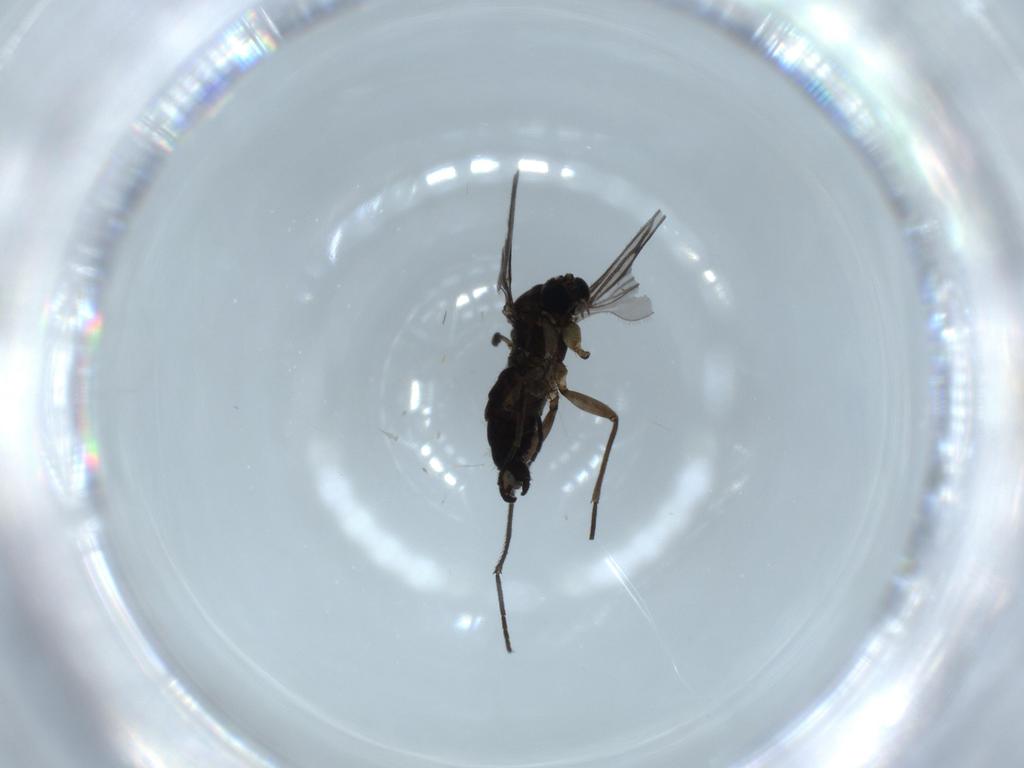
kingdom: Animalia
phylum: Arthropoda
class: Insecta
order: Diptera
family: Sciaridae
